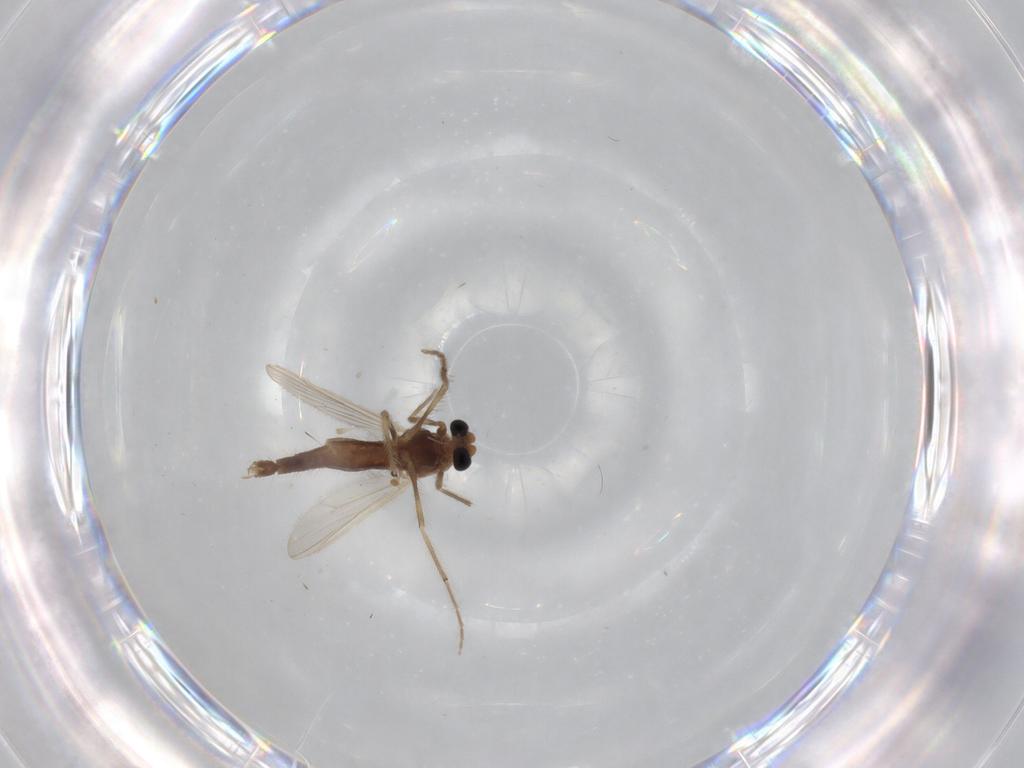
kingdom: Animalia
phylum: Arthropoda
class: Insecta
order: Diptera
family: Chironomidae
